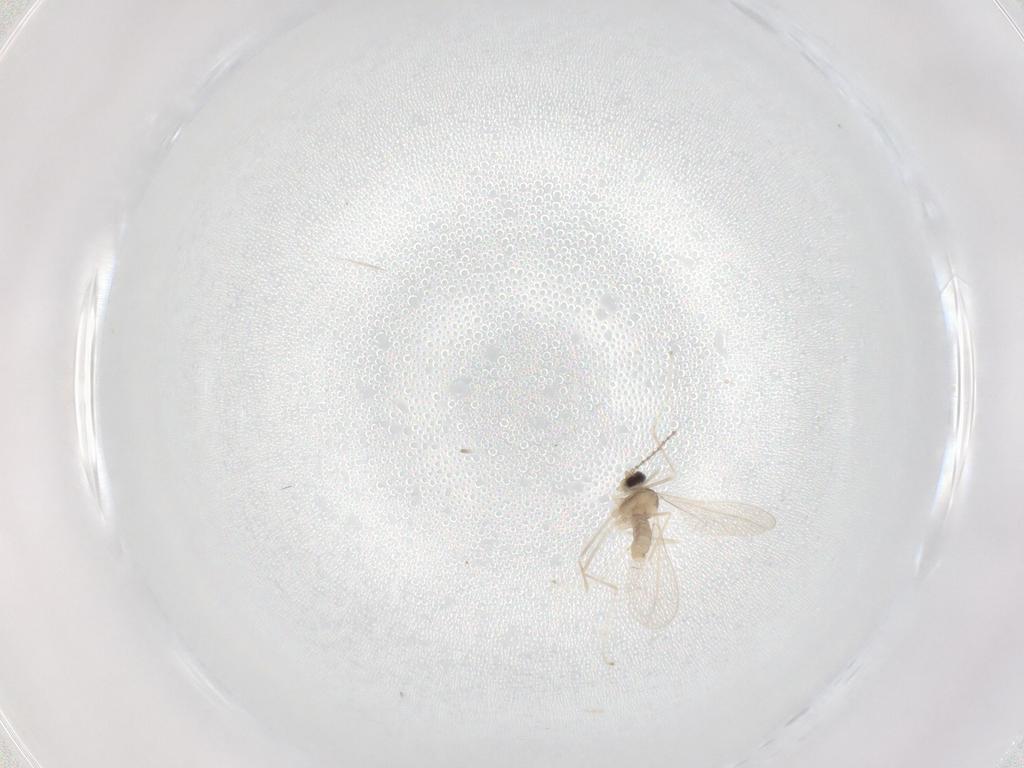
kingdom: Animalia
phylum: Arthropoda
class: Insecta
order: Diptera
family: Cecidomyiidae
